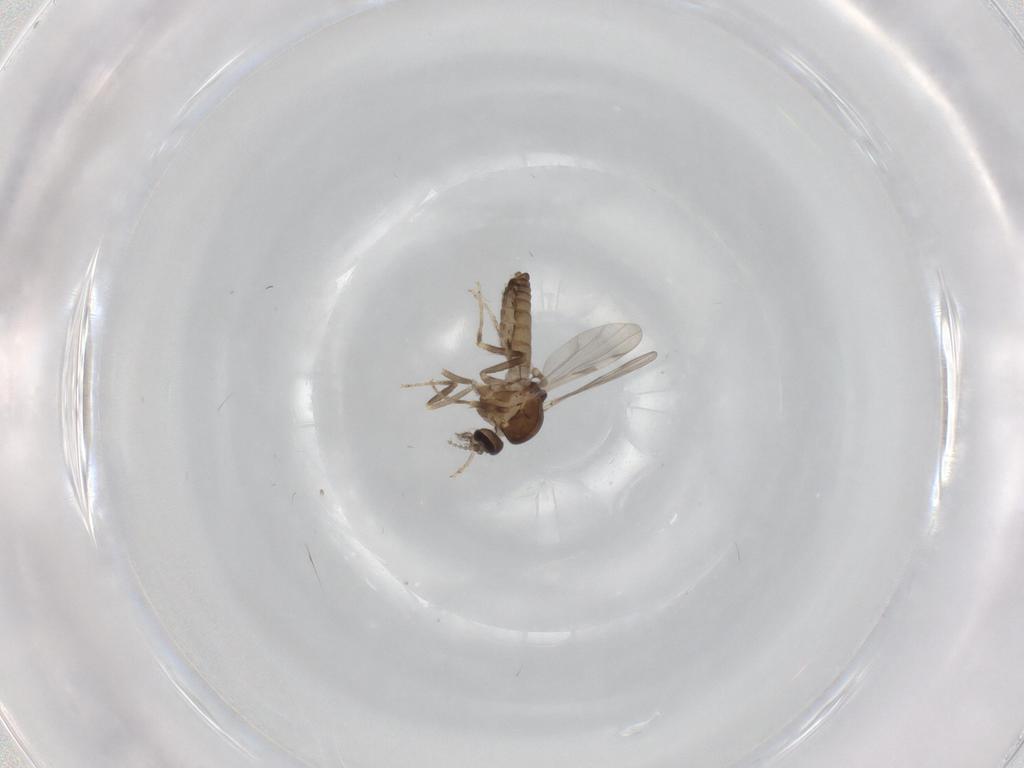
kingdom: Animalia
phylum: Arthropoda
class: Insecta
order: Diptera
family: Ceratopogonidae
